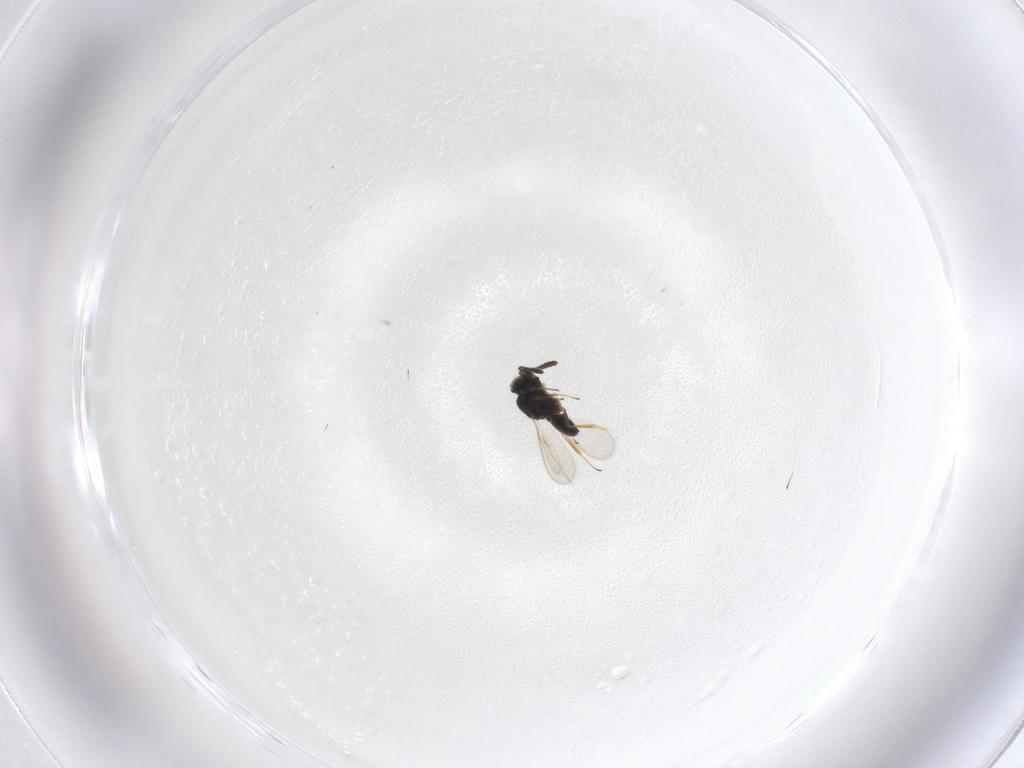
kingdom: Animalia
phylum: Arthropoda
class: Insecta
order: Hymenoptera
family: Scelionidae
